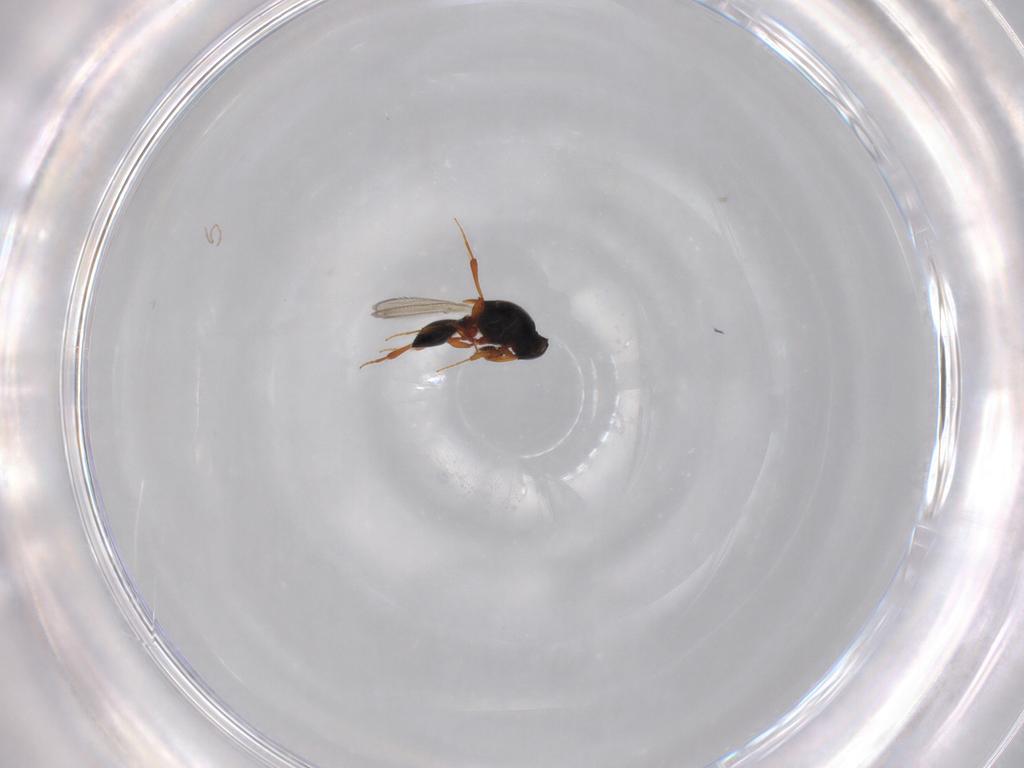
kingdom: Animalia
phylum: Arthropoda
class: Insecta
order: Hymenoptera
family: Platygastridae
